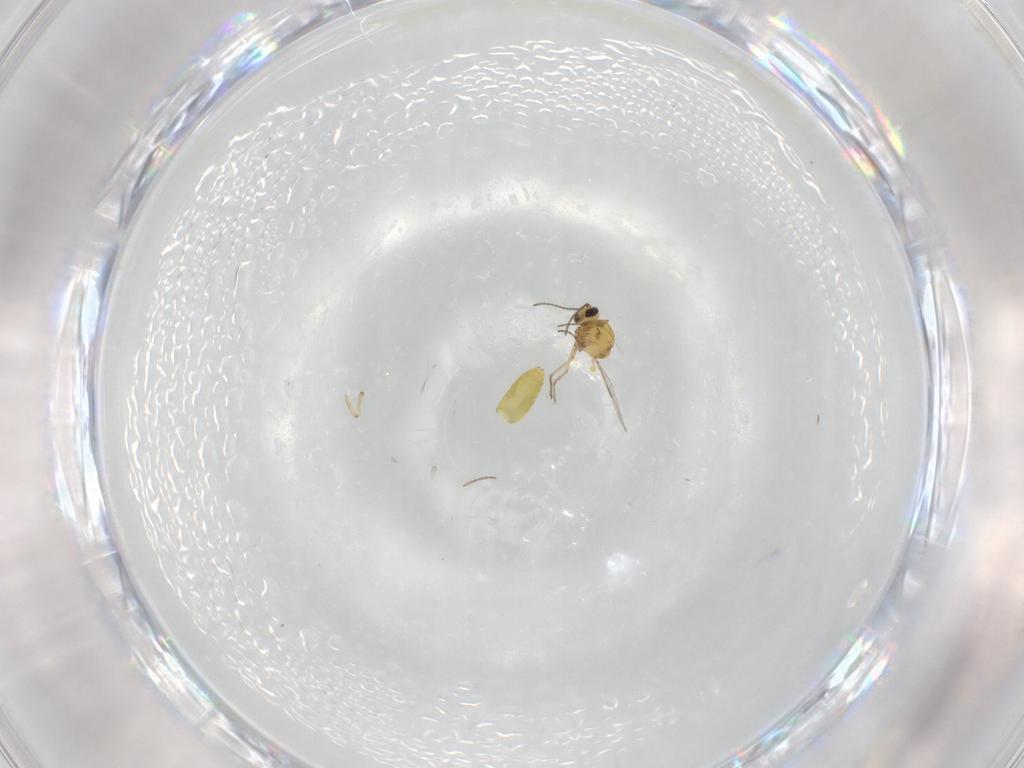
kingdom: Animalia
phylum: Arthropoda
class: Insecta
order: Diptera
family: Ceratopogonidae
